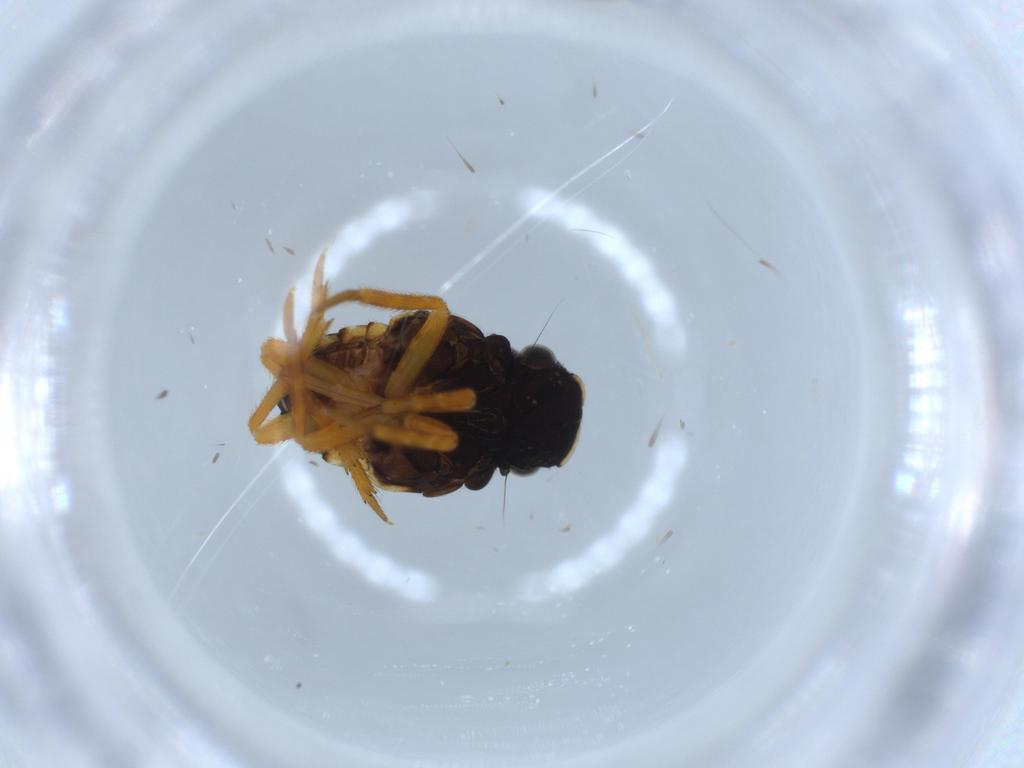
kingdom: Animalia
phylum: Arthropoda
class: Insecta
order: Hemiptera
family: Fulgoridae
